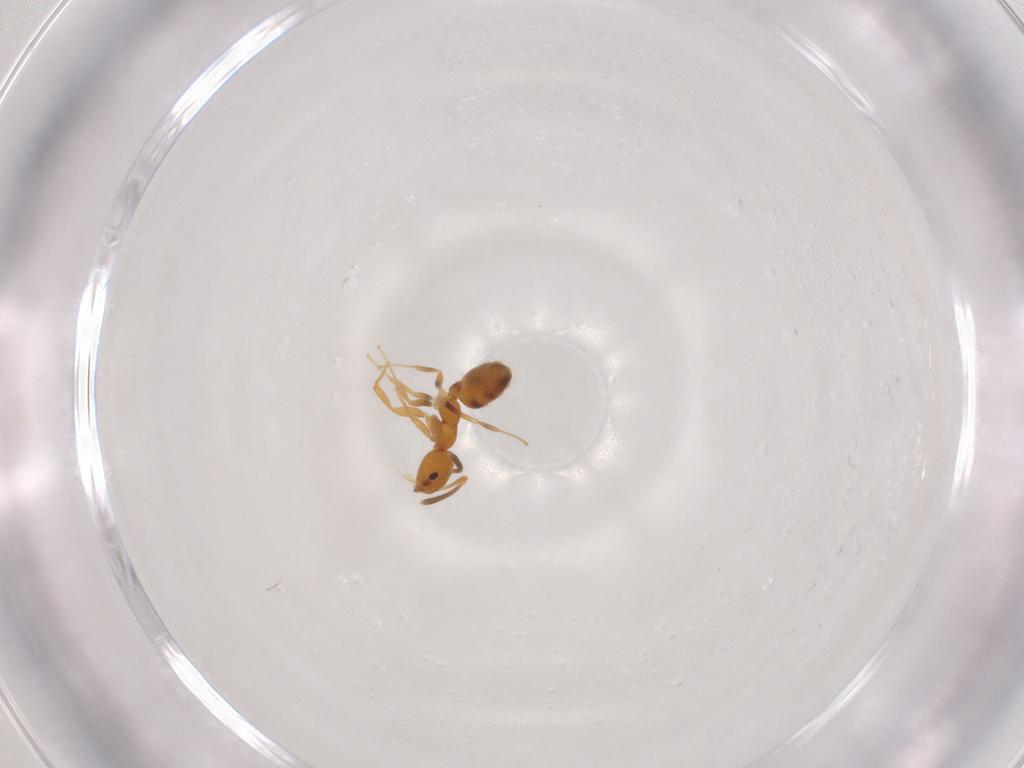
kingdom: Animalia
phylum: Arthropoda
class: Insecta
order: Hymenoptera
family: Formicidae
